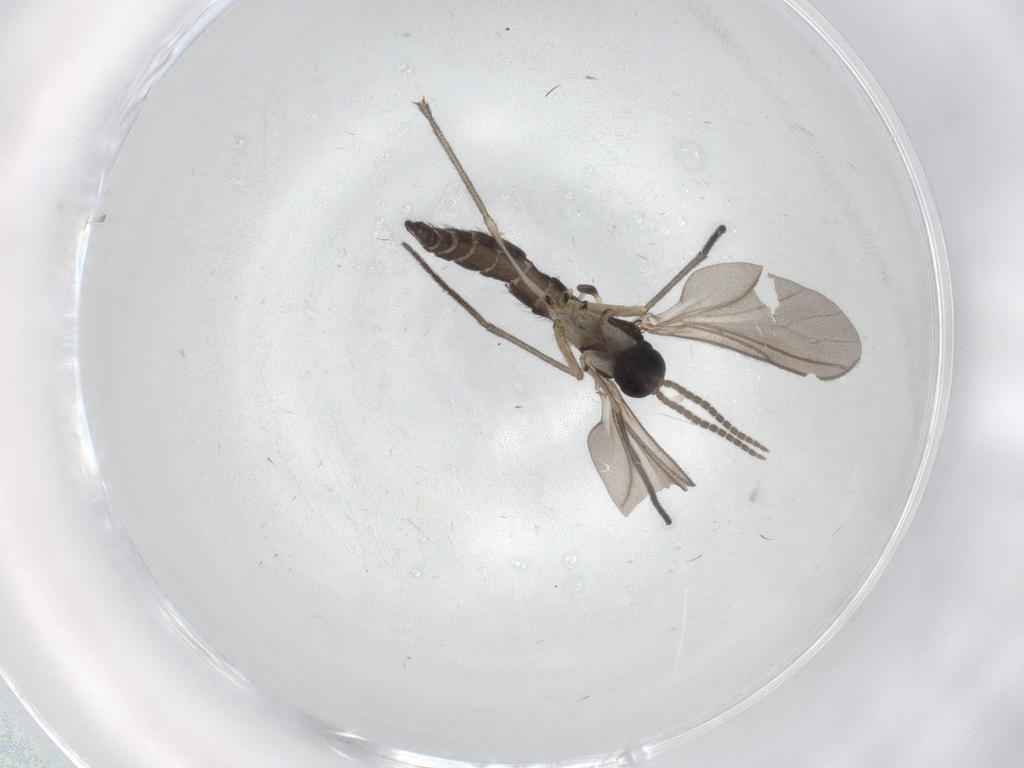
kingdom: Animalia
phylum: Arthropoda
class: Insecta
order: Diptera
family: Sciaridae
